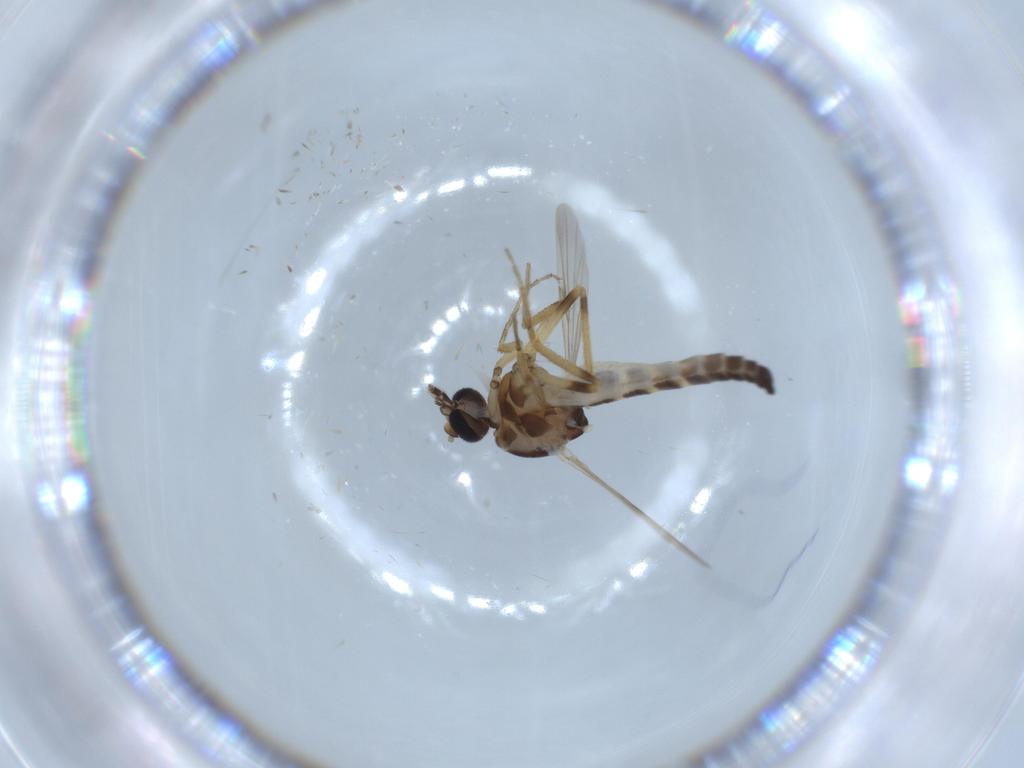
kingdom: Animalia
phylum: Arthropoda
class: Insecta
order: Diptera
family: Ceratopogonidae
